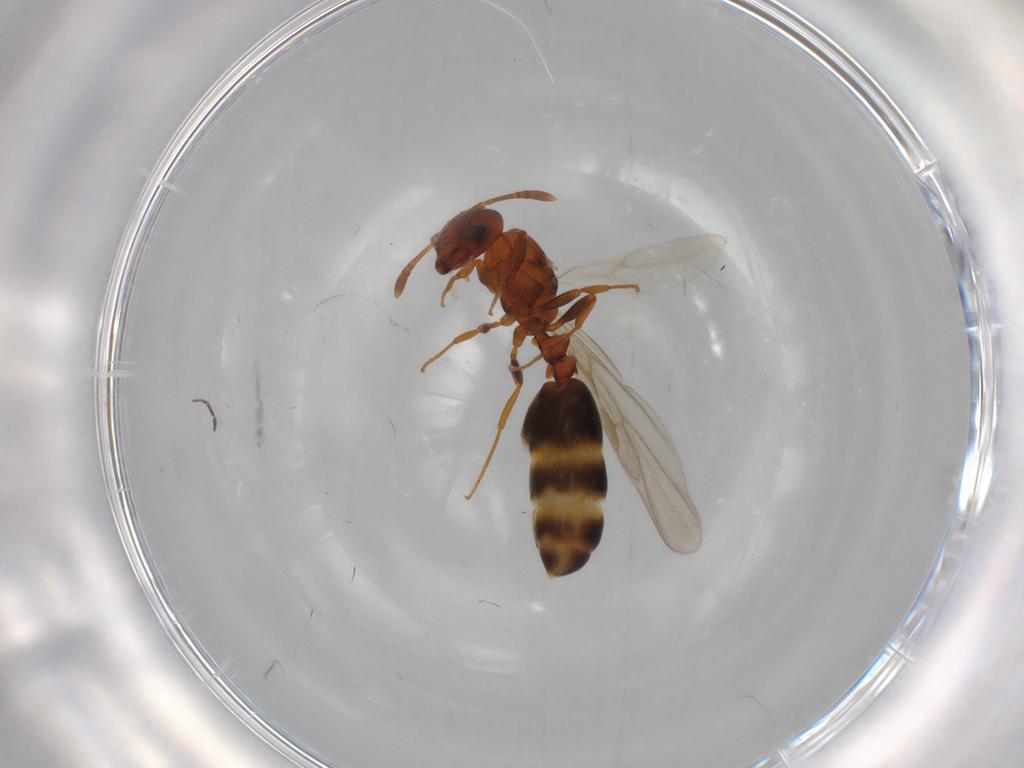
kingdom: Animalia
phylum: Arthropoda
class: Insecta
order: Hymenoptera
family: Formicidae
